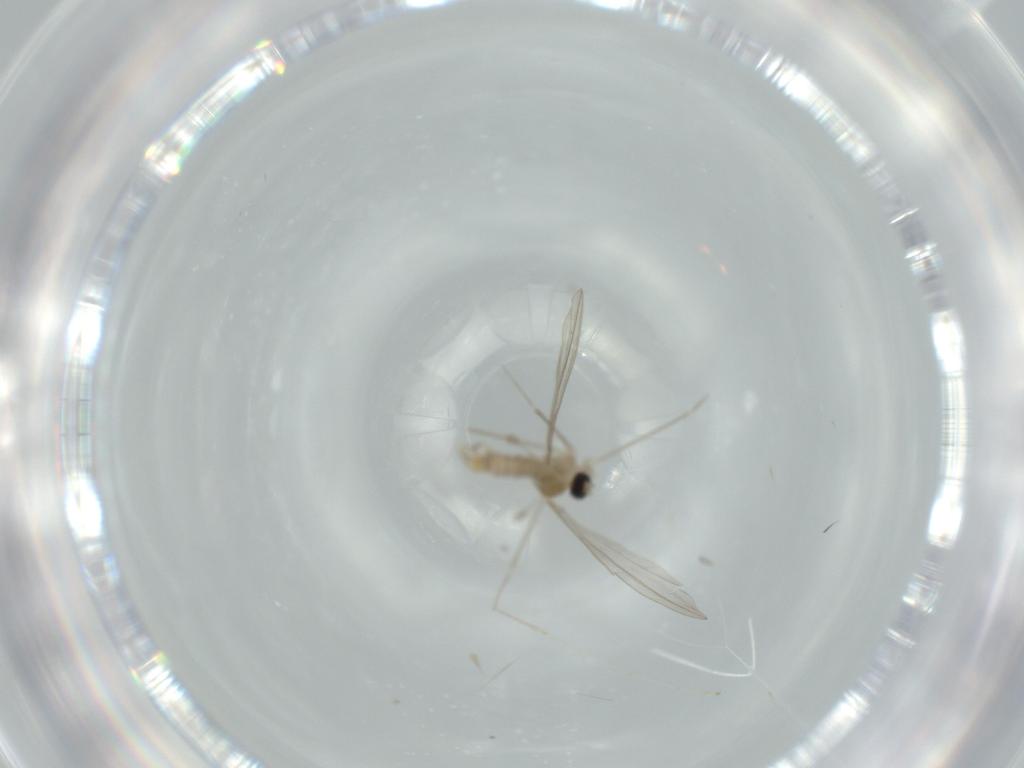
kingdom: Animalia
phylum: Arthropoda
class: Insecta
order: Diptera
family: Cecidomyiidae
